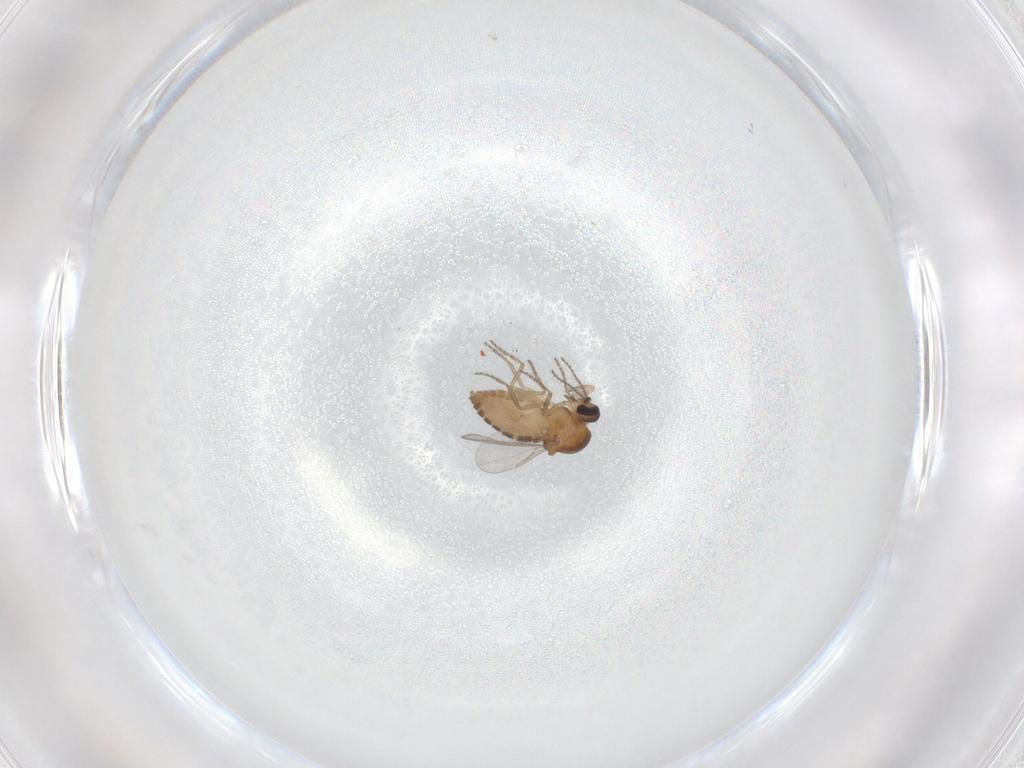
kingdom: Animalia
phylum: Arthropoda
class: Insecta
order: Diptera
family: Ceratopogonidae
